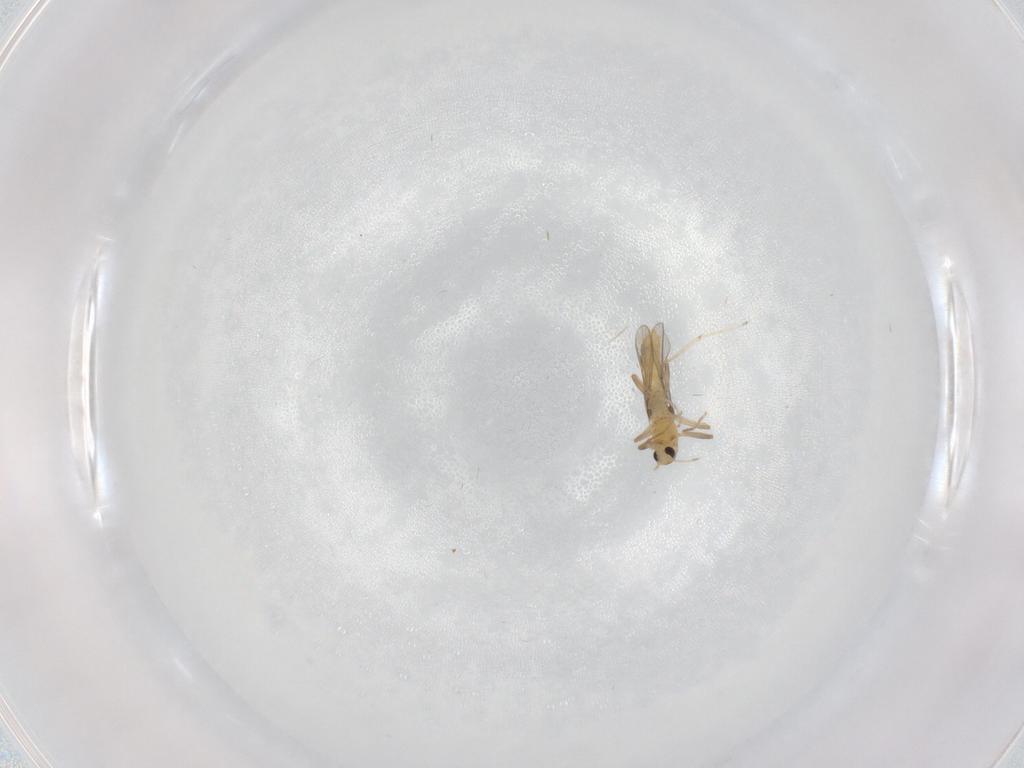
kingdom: Animalia
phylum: Arthropoda
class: Insecta
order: Diptera
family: Chironomidae
